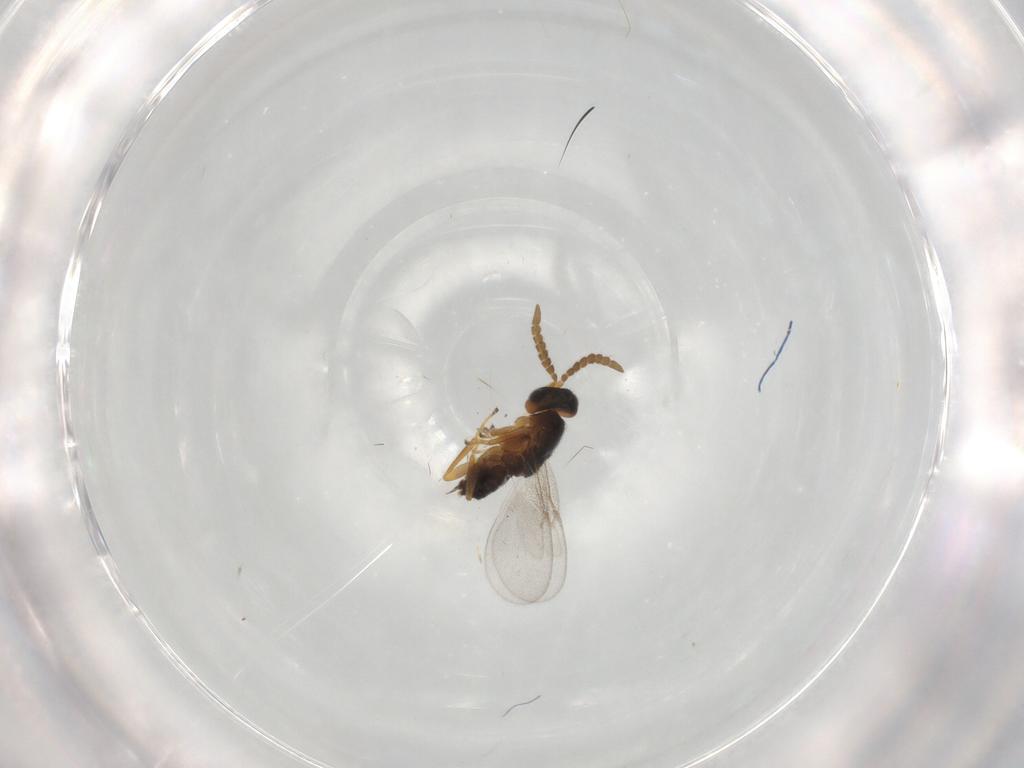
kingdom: Animalia
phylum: Arthropoda
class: Insecta
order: Hymenoptera
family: Encyrtidae
